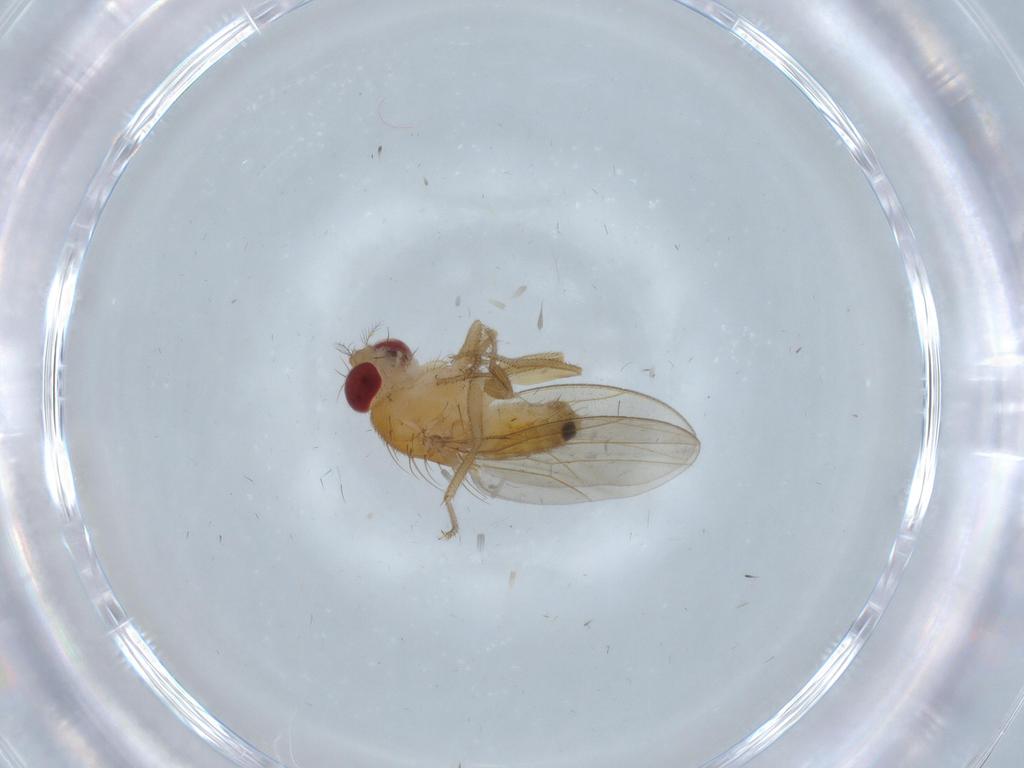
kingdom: Animalia
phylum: Arthropoda
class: Insecta
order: Diptera
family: Drosophilidae
